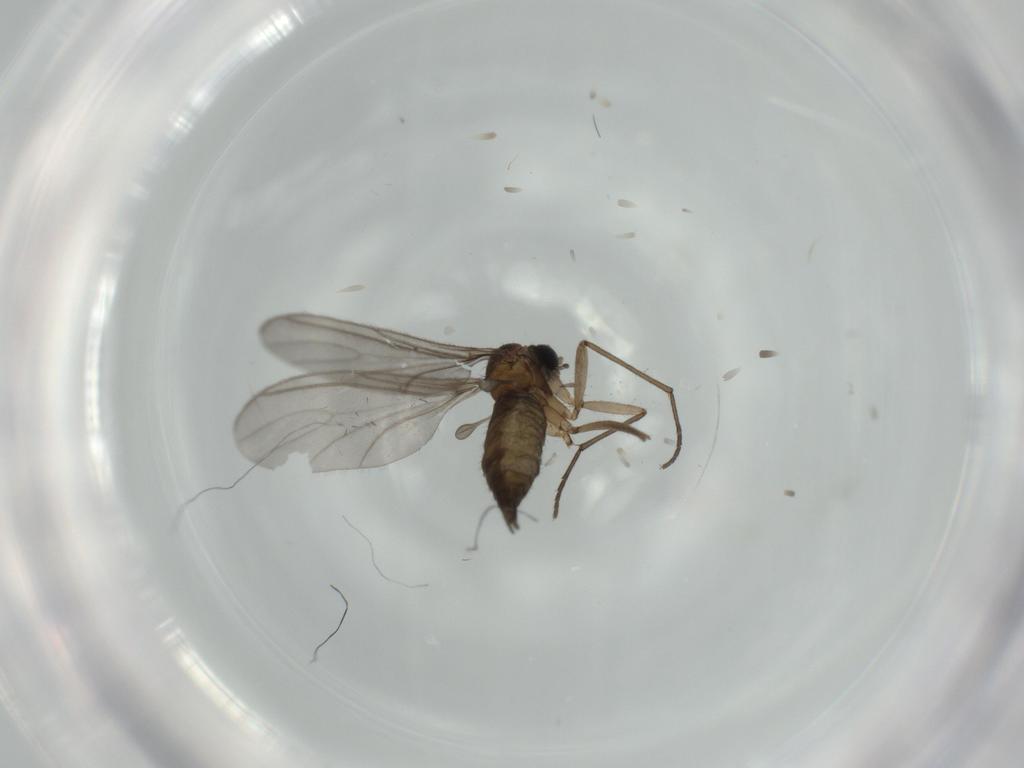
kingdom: Animalia
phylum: Arthropoda
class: Insecta
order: Diptera
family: Sciaridae
